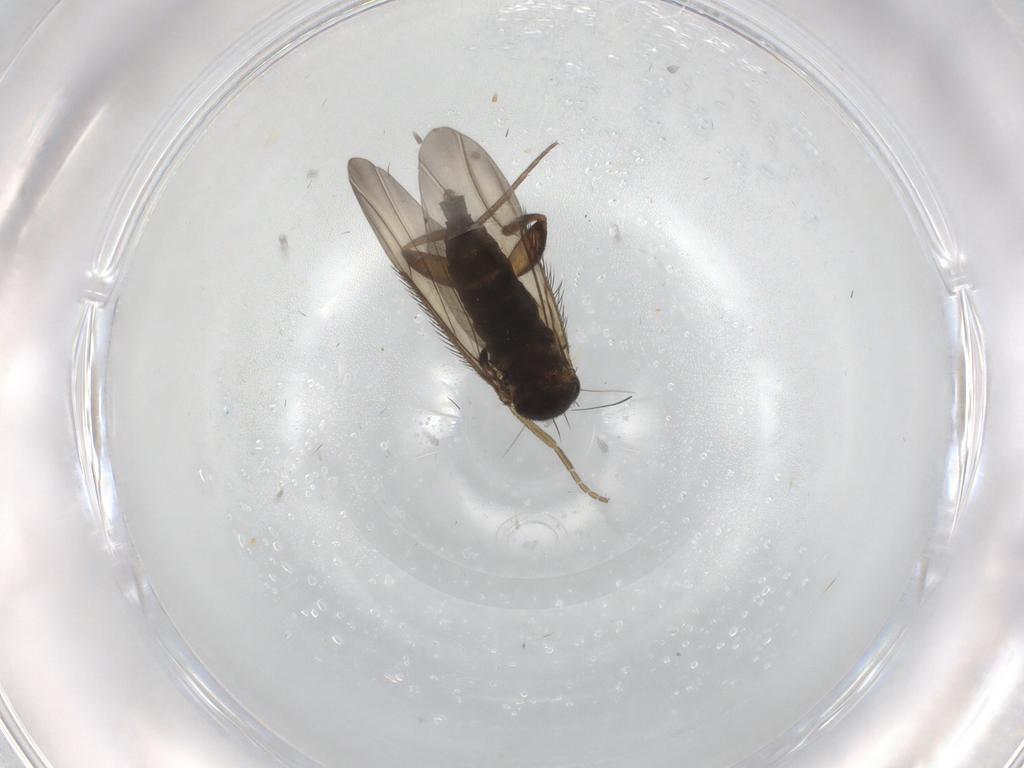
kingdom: Animalia
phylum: Arthropoda
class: Insecta
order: Diptera
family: Phoridae
